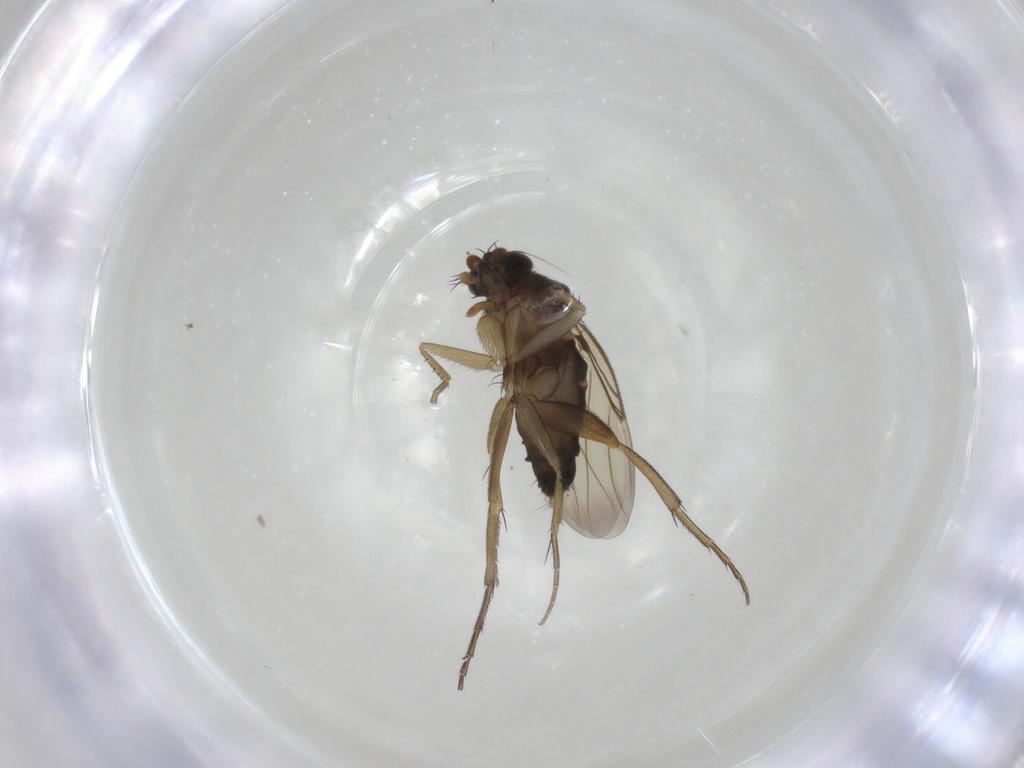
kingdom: Animalia
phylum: Arthropoda
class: Insecta
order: Diptera
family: Phoridae
